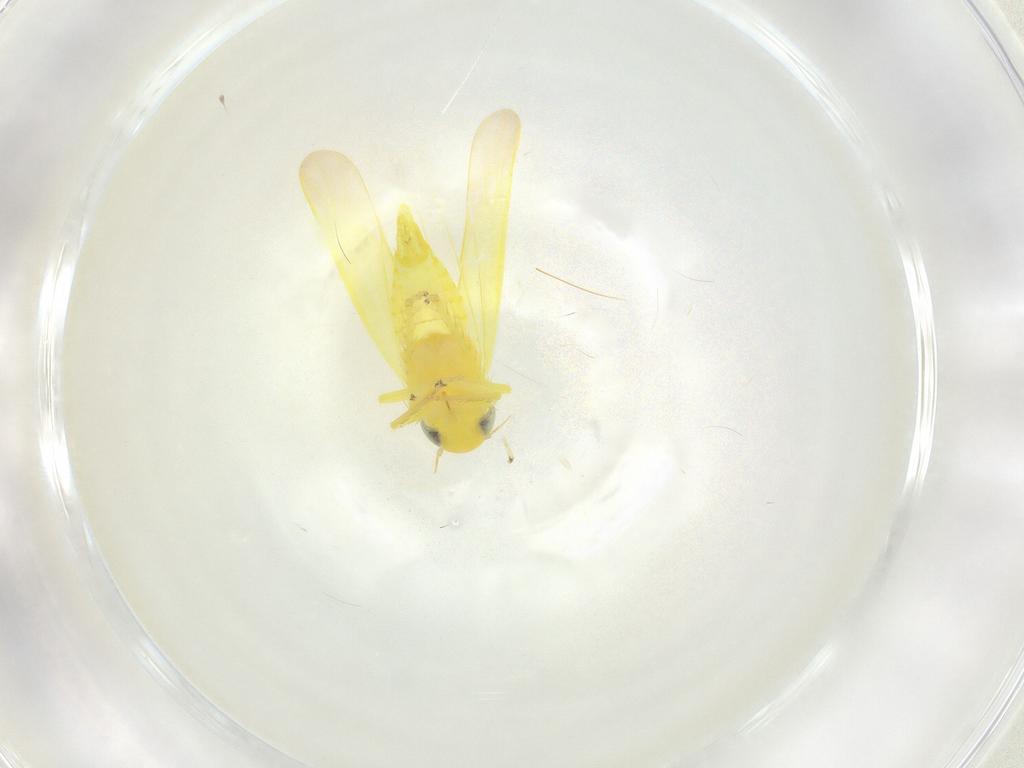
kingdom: Animalia
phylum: Arthropoda
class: Insecta
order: Hemiptera
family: Cicadellidae
